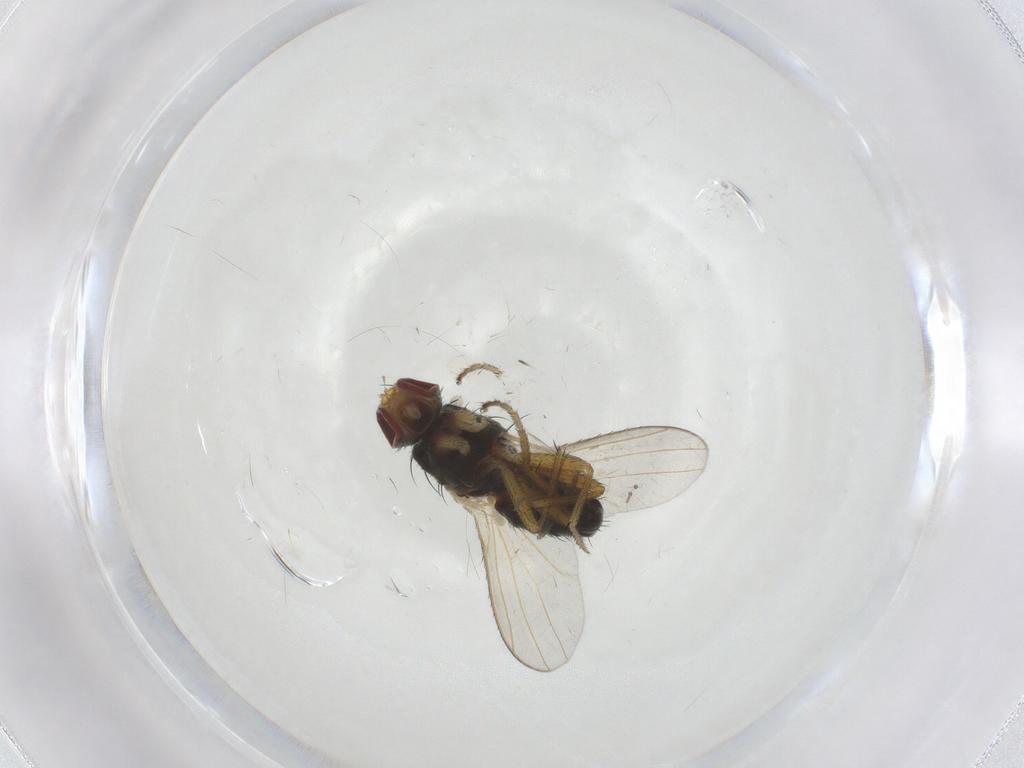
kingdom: Animalia
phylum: Arthropoda
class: Insecta
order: Diptera
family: Heleomyzidae
